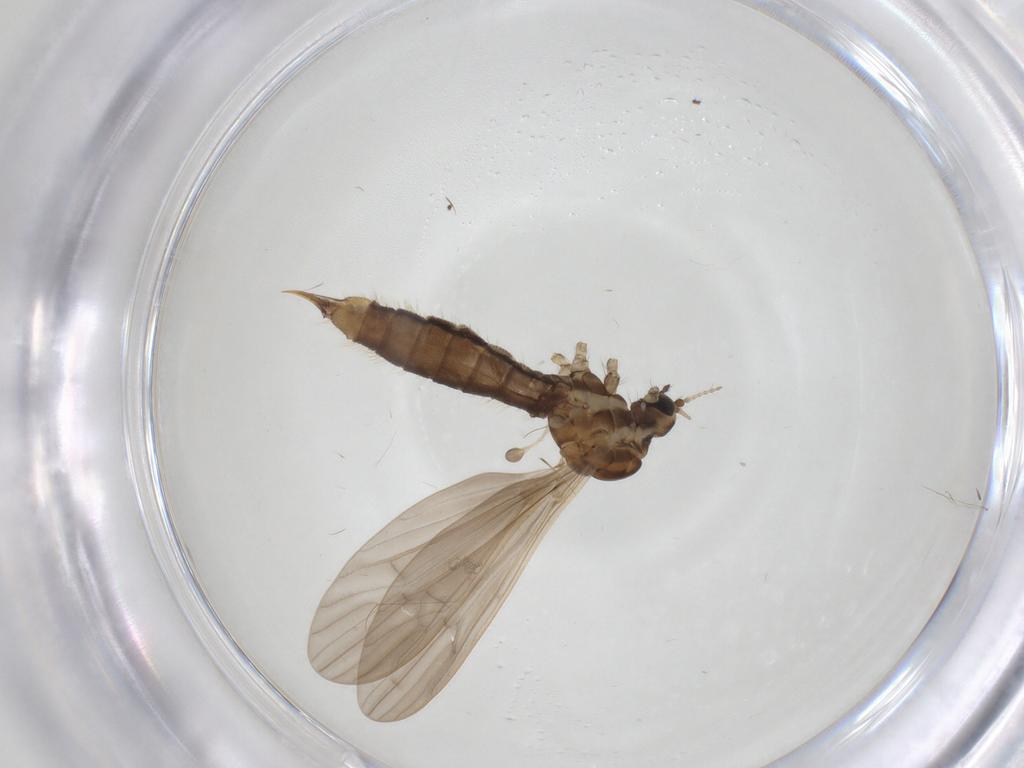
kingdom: Animalia
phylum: Arthropoda
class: Insecta
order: Diptera
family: Limoniidae
